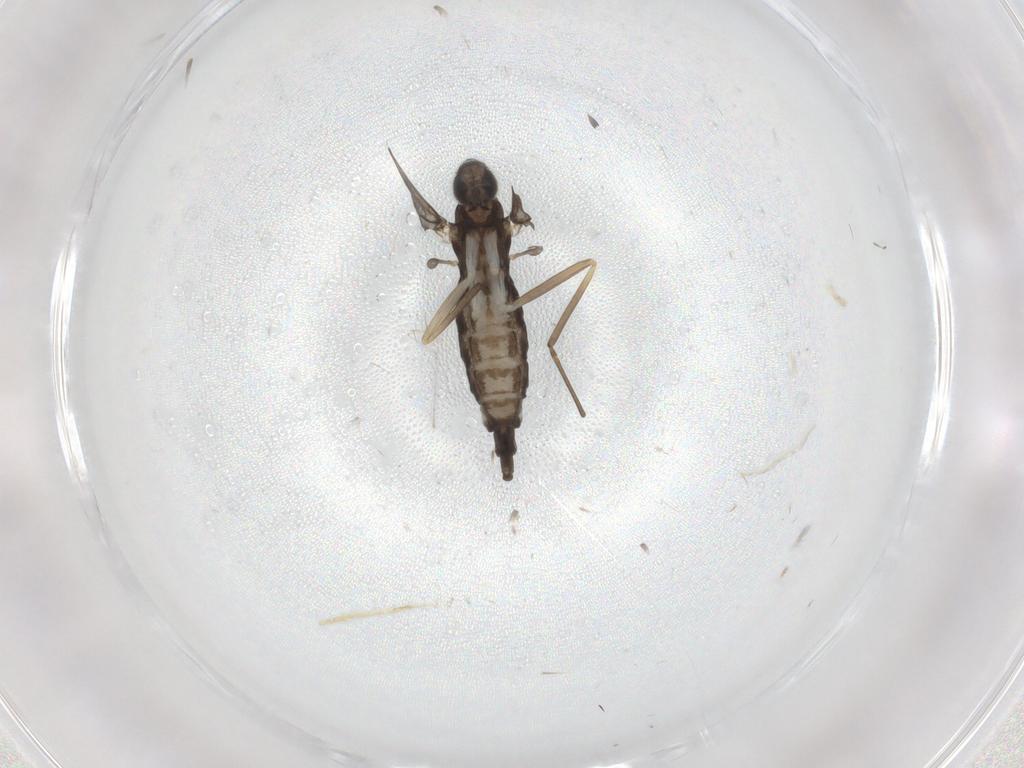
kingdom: Animalia
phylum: Arthropoda
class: Insecta
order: Diptera
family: Cecidomyiidae
